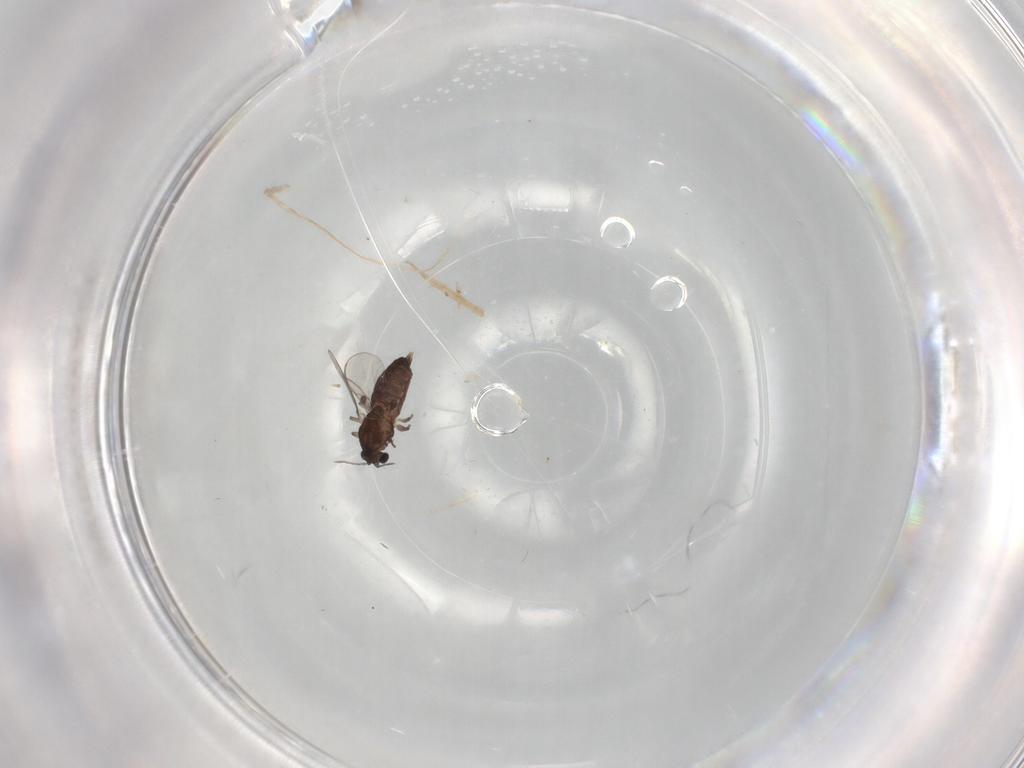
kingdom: Animalia
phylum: Arthropoda
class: Insecta
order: Diptera
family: Chironomidae
